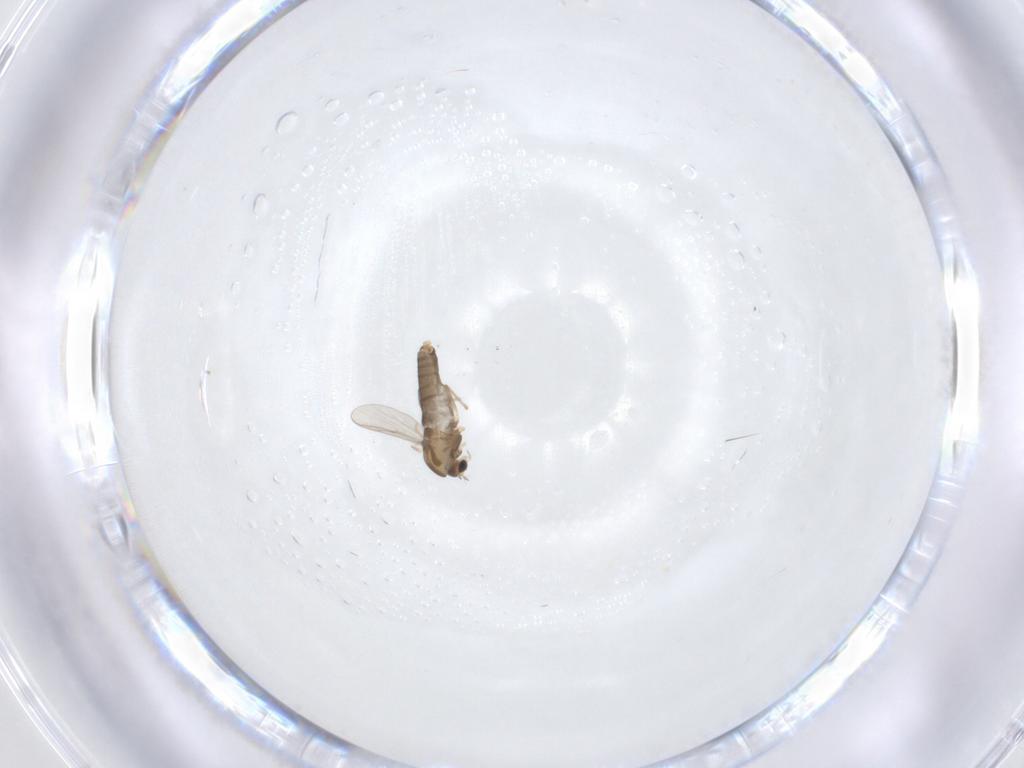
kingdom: Animalia
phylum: Arthropoda
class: Insecta
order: Diptera
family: Chironomidae
